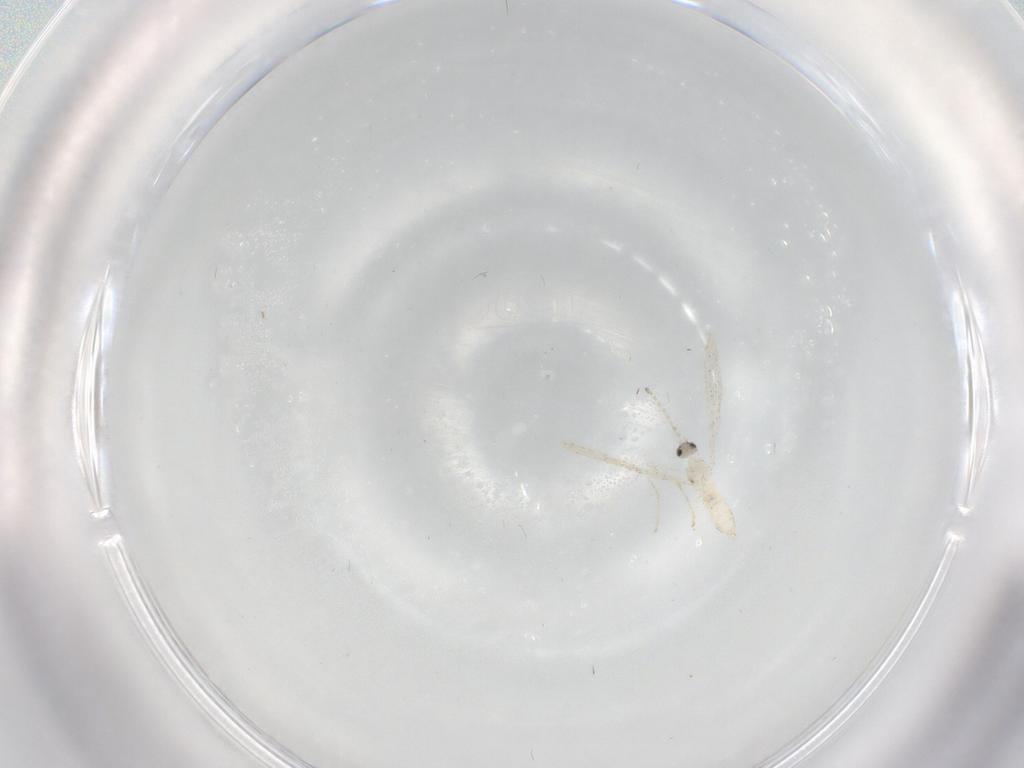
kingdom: Animalia
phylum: Arthropoda
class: Insecta
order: Diptera
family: Cecidomyiidae
